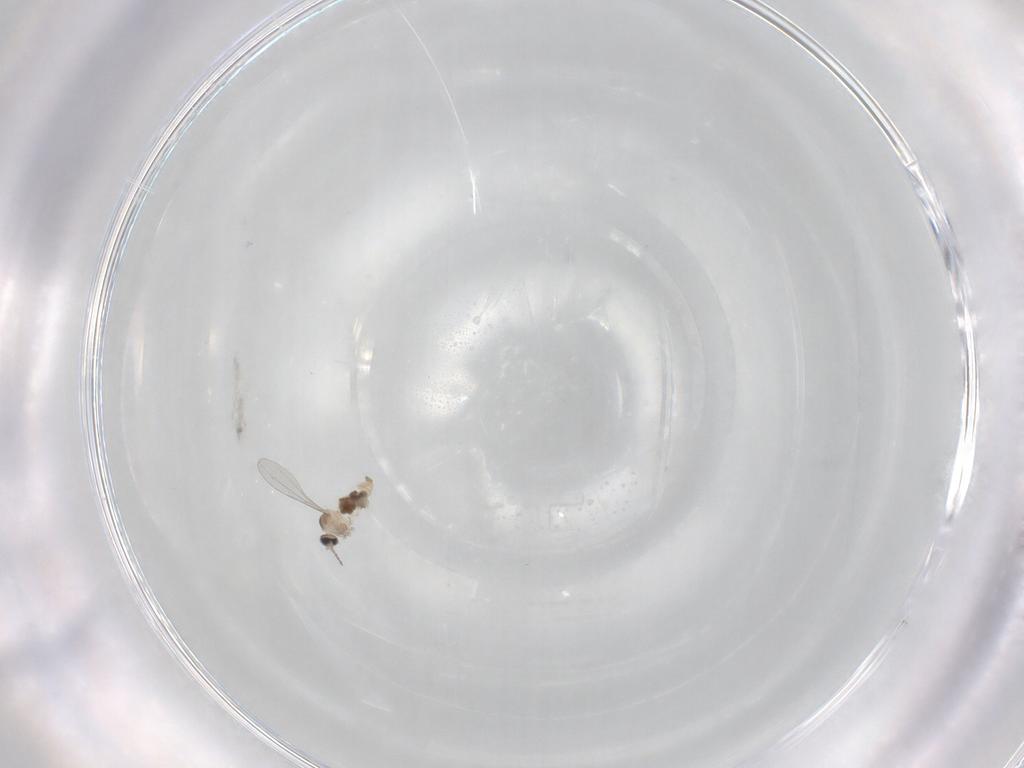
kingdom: Animalia
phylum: Arthropoda
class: Insecta
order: Diptera
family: Cecidomyiidae
